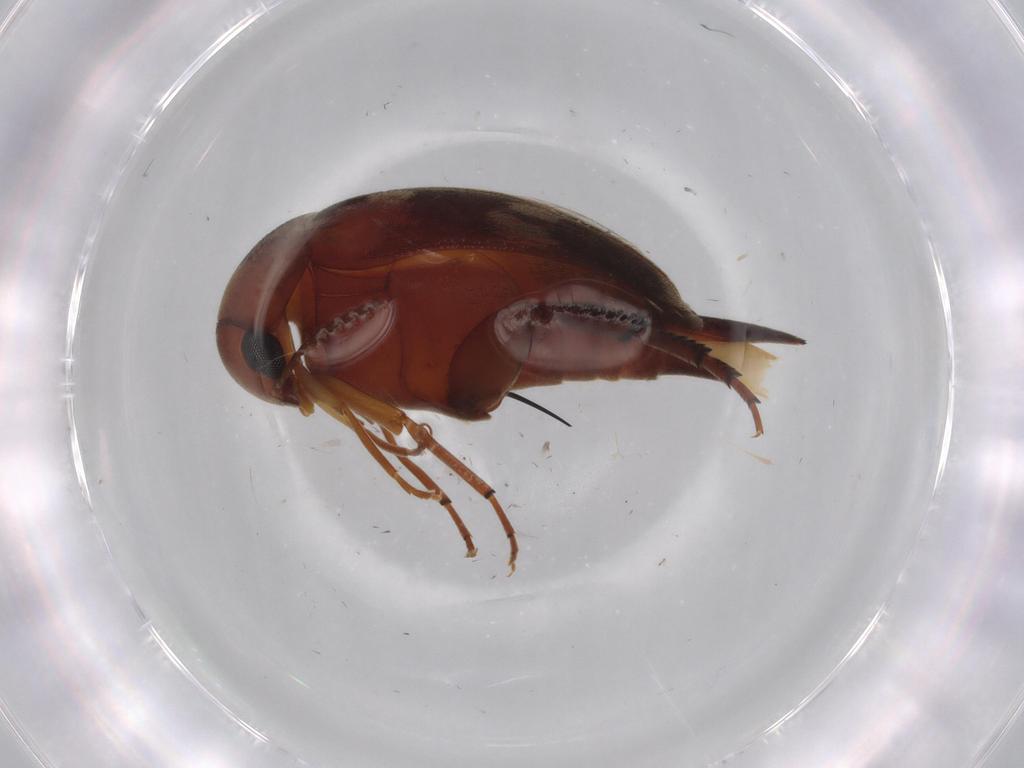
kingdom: Animalia
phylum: Arthropoda
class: Insecta
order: Coleoptera
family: Mordellidae
